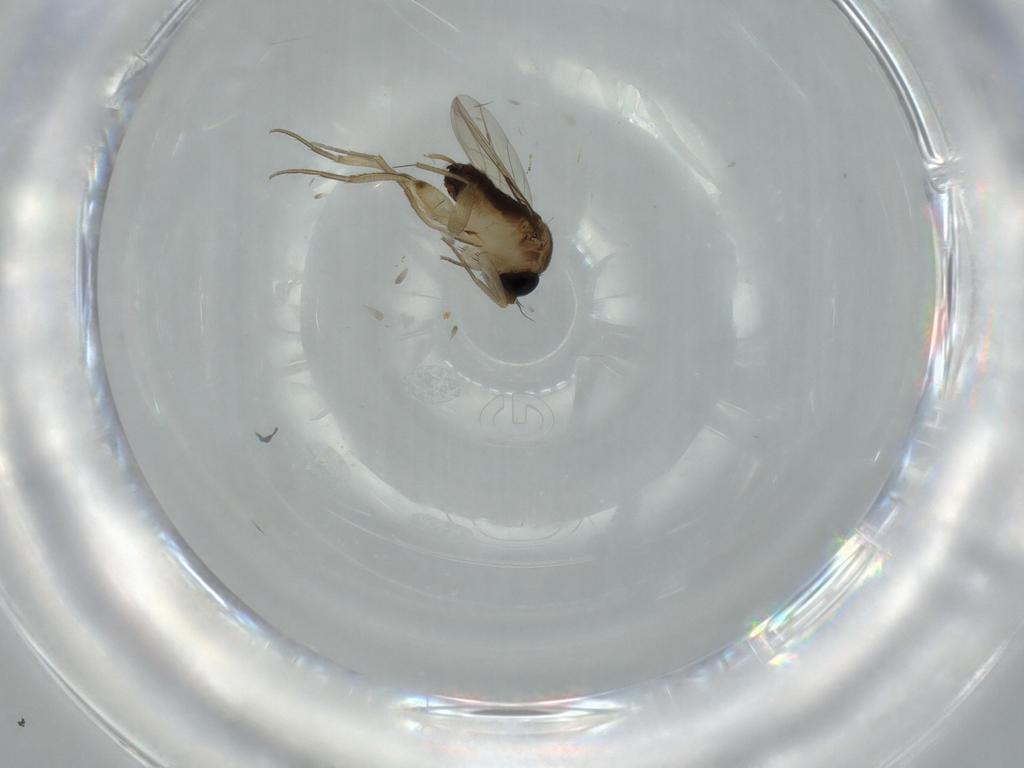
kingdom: Animalia
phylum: Arthropoda
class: Insecta
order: Diptera
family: Phoridae
